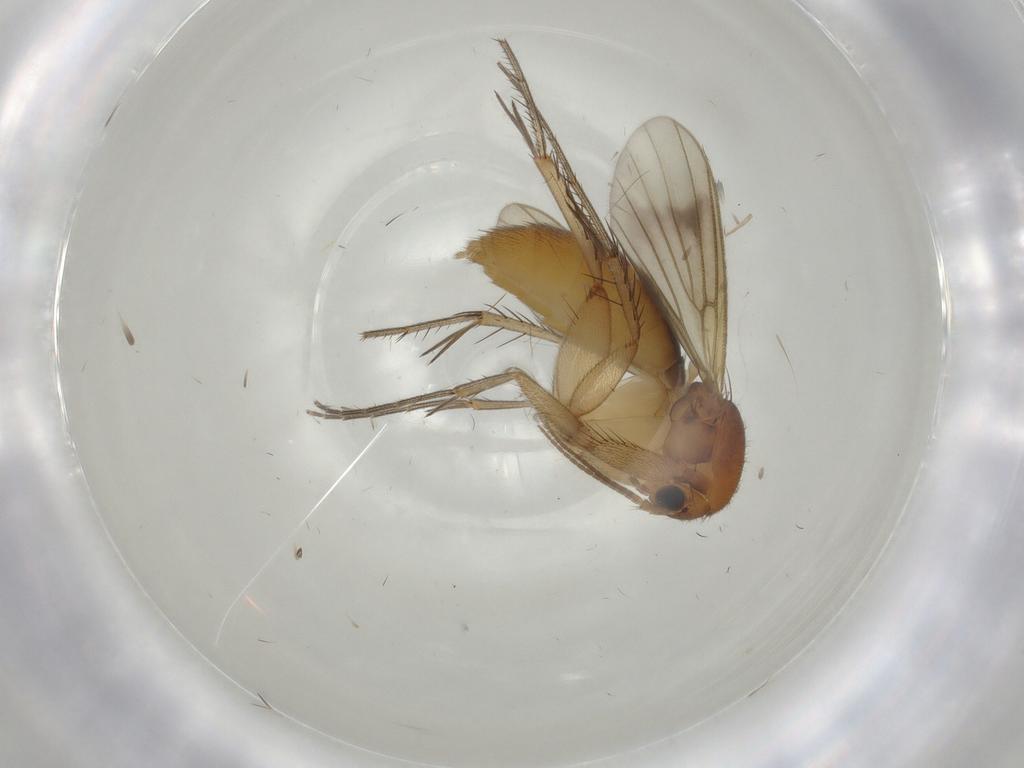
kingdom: Animalia
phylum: Arthropoda
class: Insecta
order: Diptera
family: Mycetophilidae
